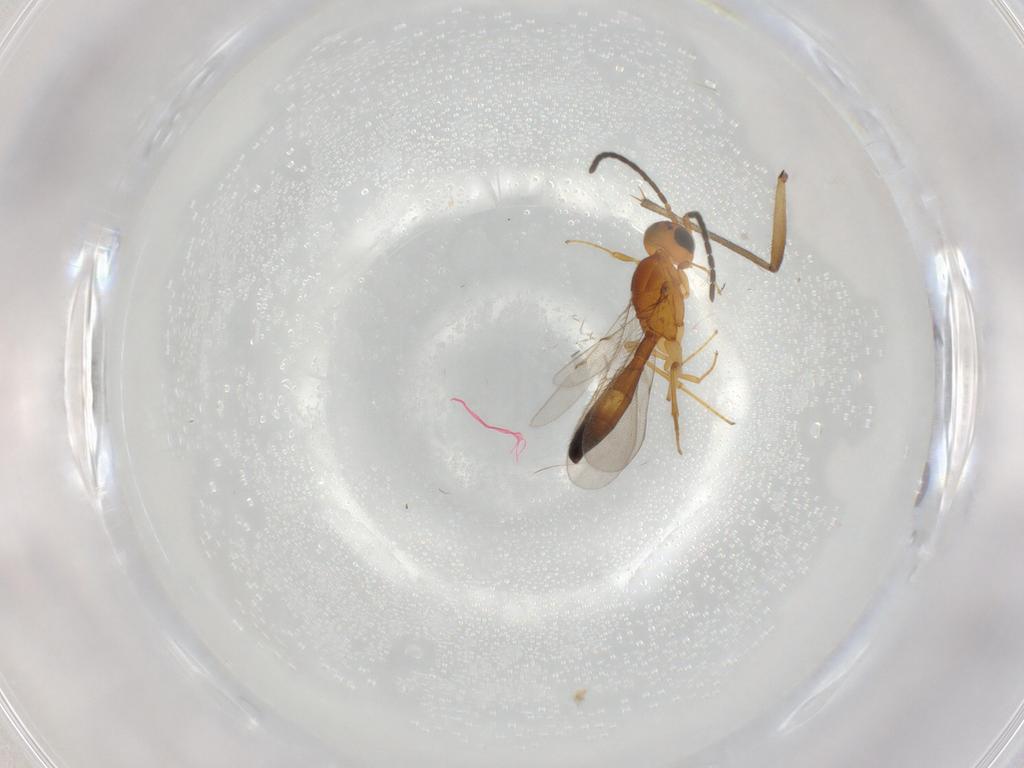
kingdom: Animalia
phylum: Arthropoda
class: Insecta
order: Hymenoptera
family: Scelionidae
